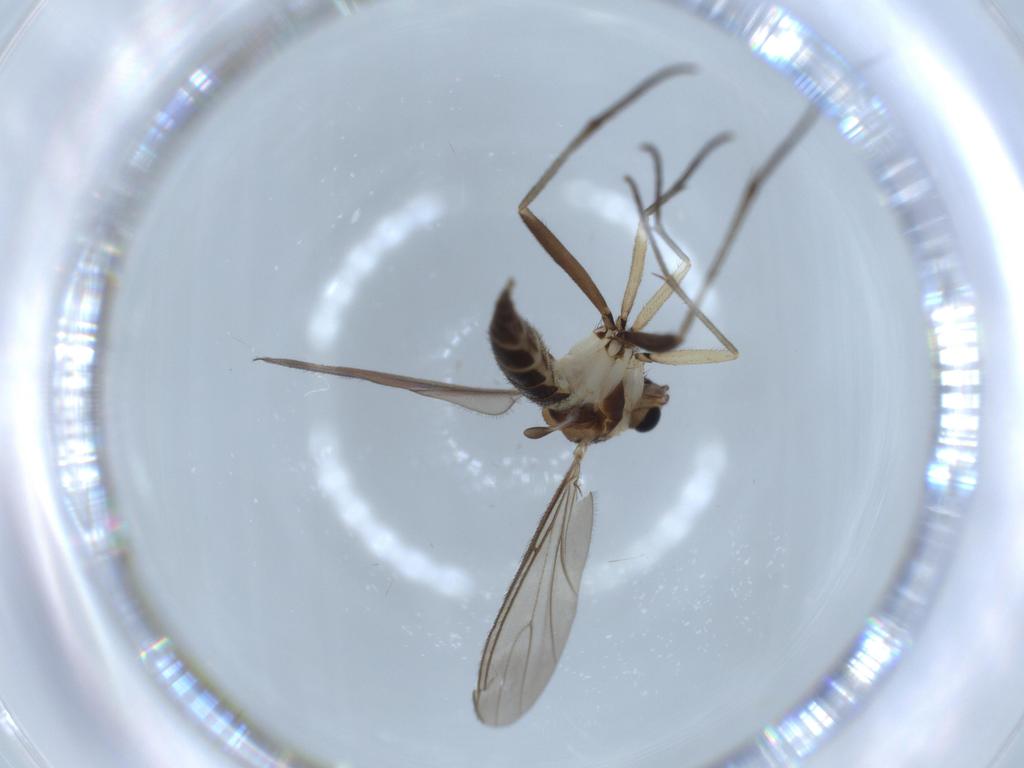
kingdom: Animalia
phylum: Arthropoda
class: Insecta
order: Diptera
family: Sciaridae
